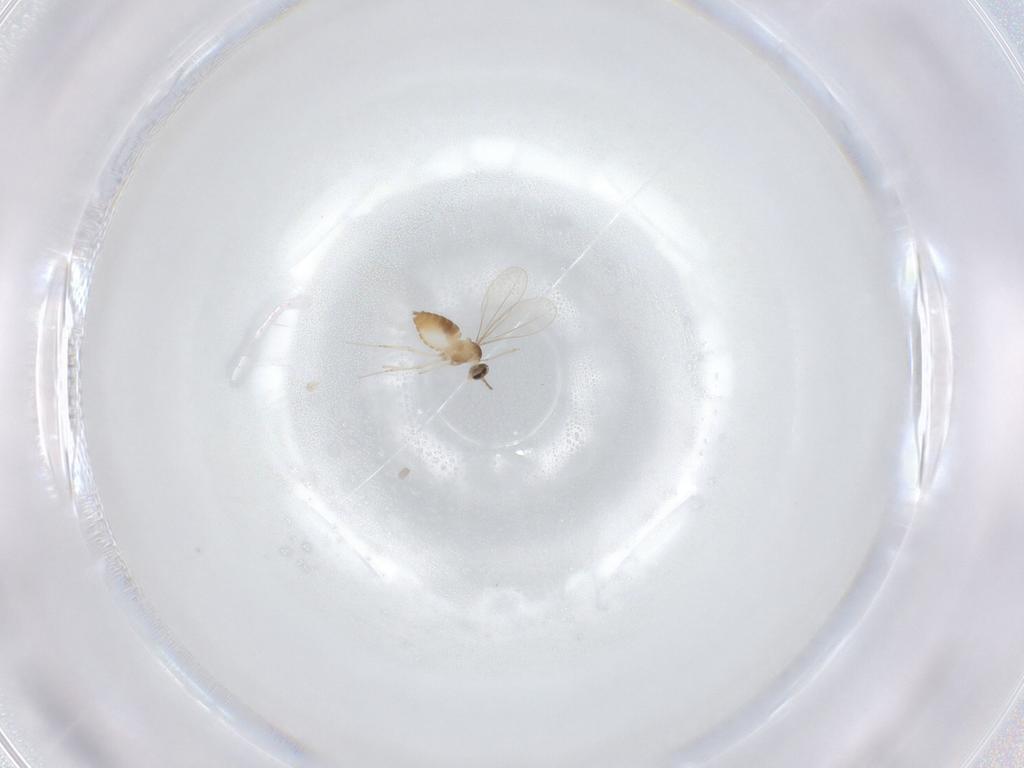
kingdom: Animalia
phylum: Arthropoda
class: Insecta
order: Diptera
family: Cecidomyiidae
